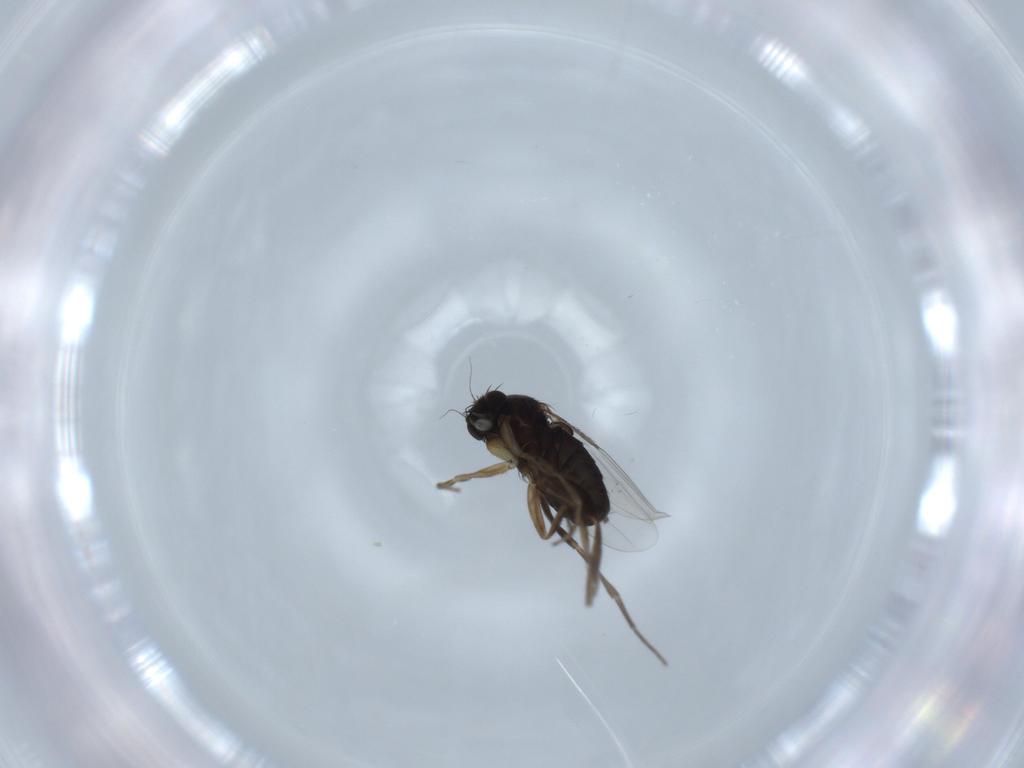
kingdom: Animalia
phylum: Arthropoda
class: Insecta
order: Diptera
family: Phoridae
